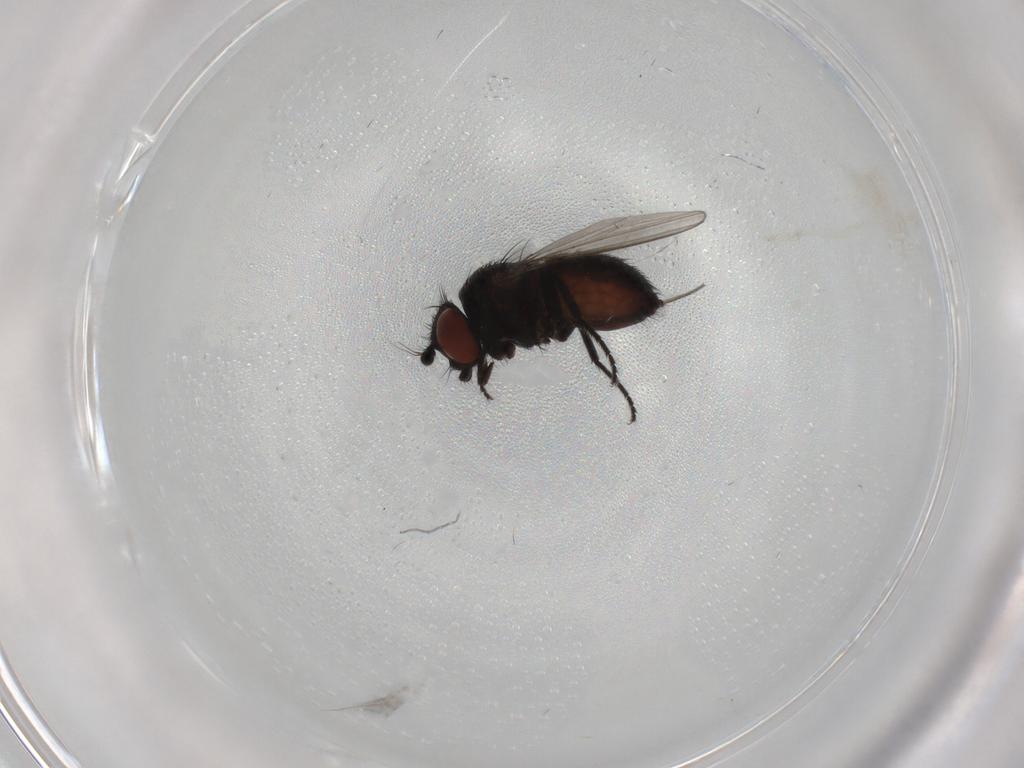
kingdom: Animalia
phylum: Arthropoda
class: Insecta
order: Diptera
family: Milichiidae
